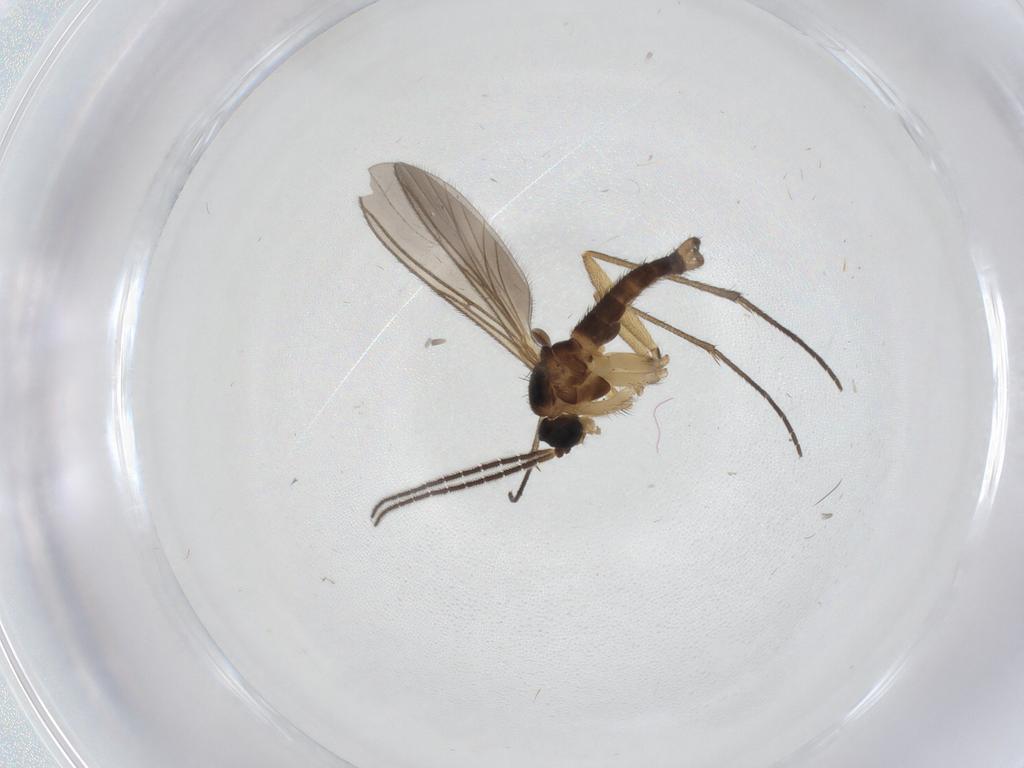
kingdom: Animalia
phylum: Arthropoda
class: Insecta
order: Diptera
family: Sciaridae
